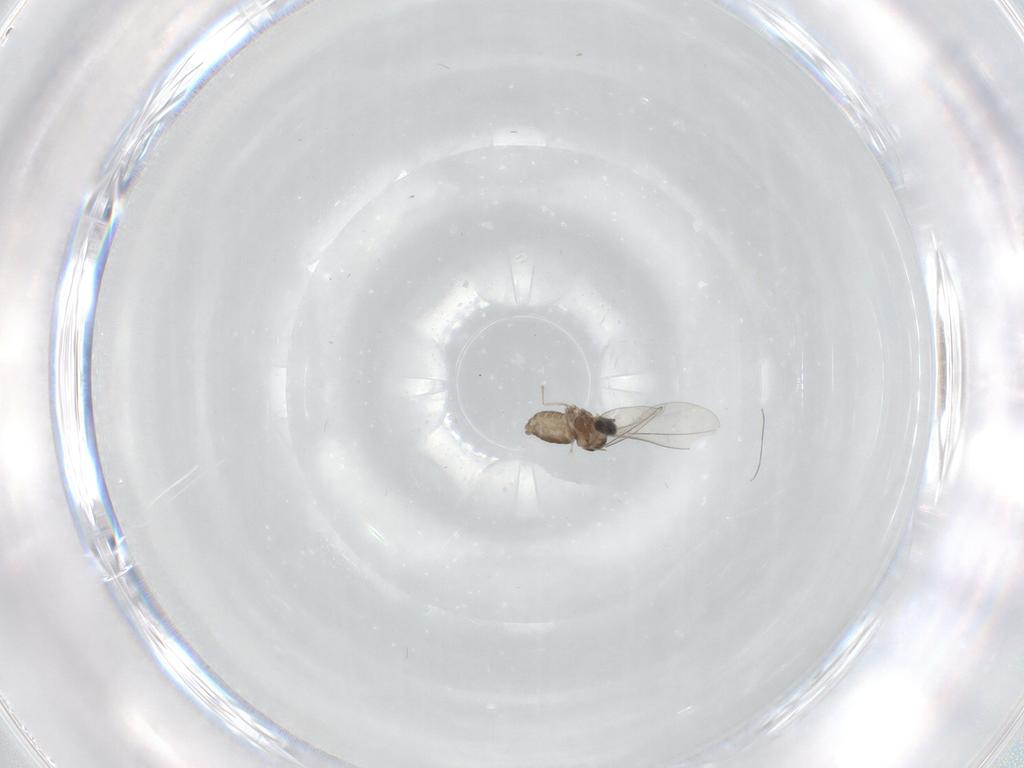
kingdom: Animalia
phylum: Arthropoda
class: Insecta
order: Diptera
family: Cecidomyiidae
